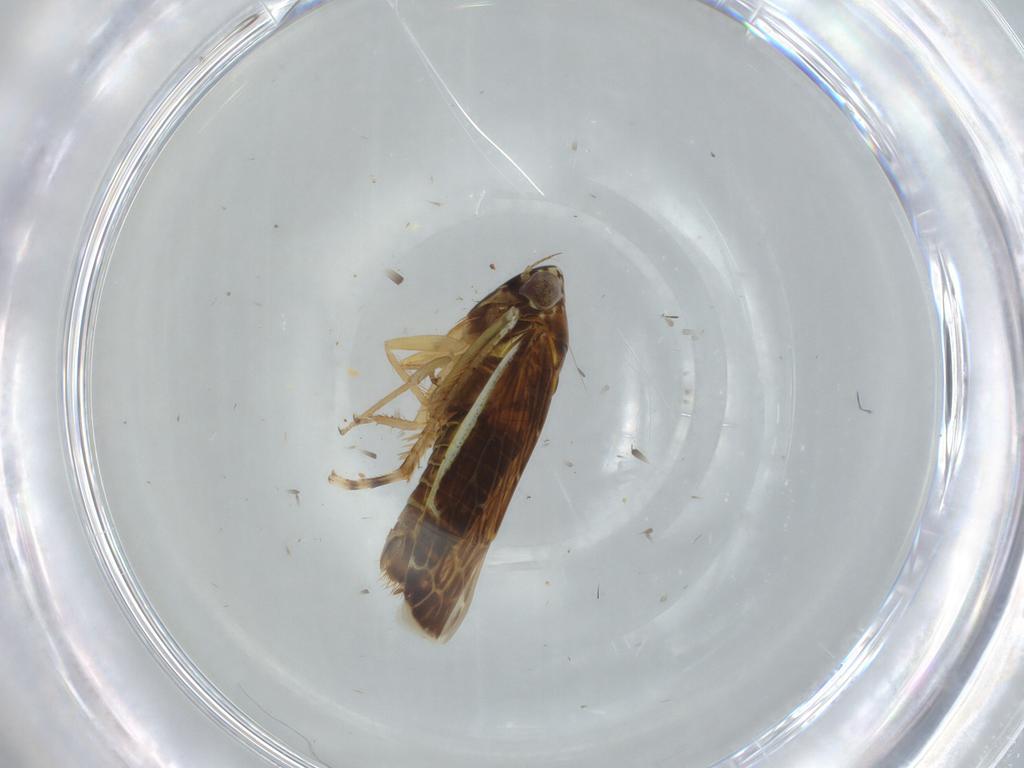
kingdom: Animalia
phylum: Arthropoda
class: Insecta
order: Hemiptera
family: Cicadellidae
